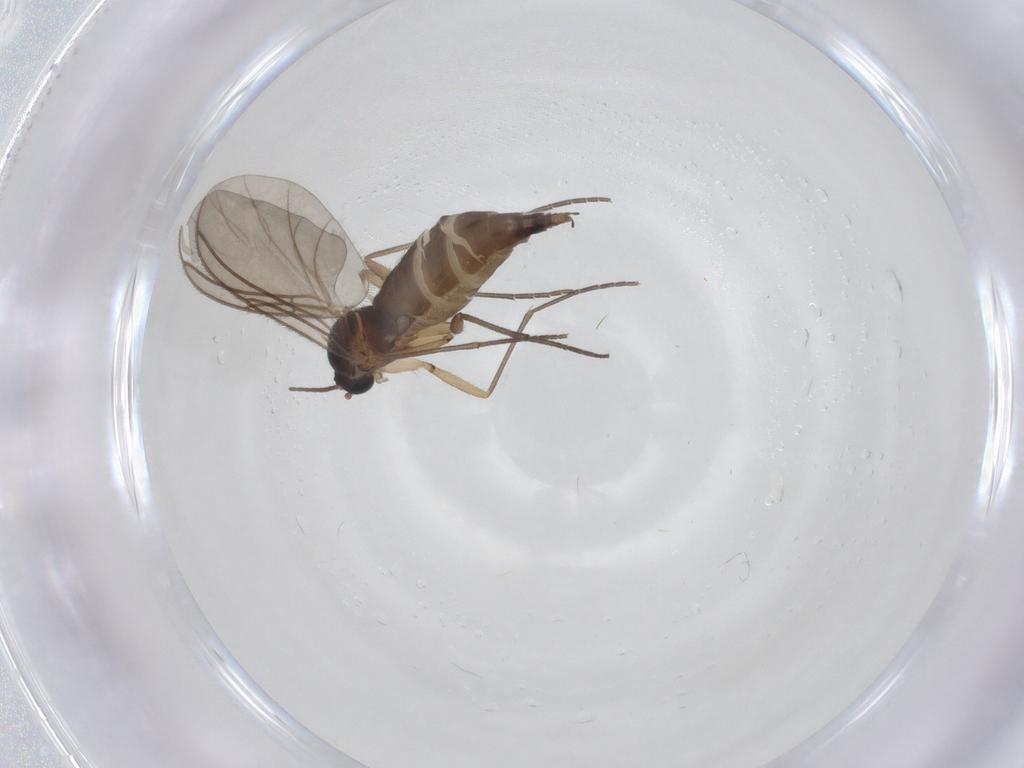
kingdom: Animalia
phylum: Arthropoda
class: Insecta
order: Diptera
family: Sciaridae
